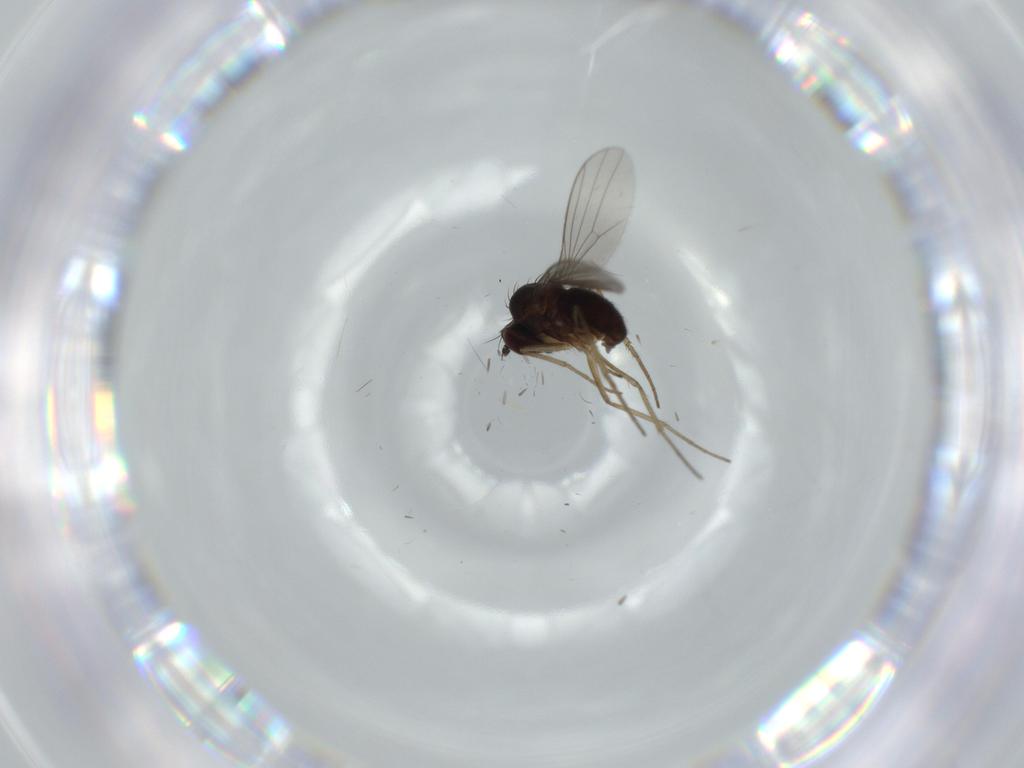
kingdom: Animalia
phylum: Arthropoda
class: Insecta
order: Diptera
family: Dolichopodidae
